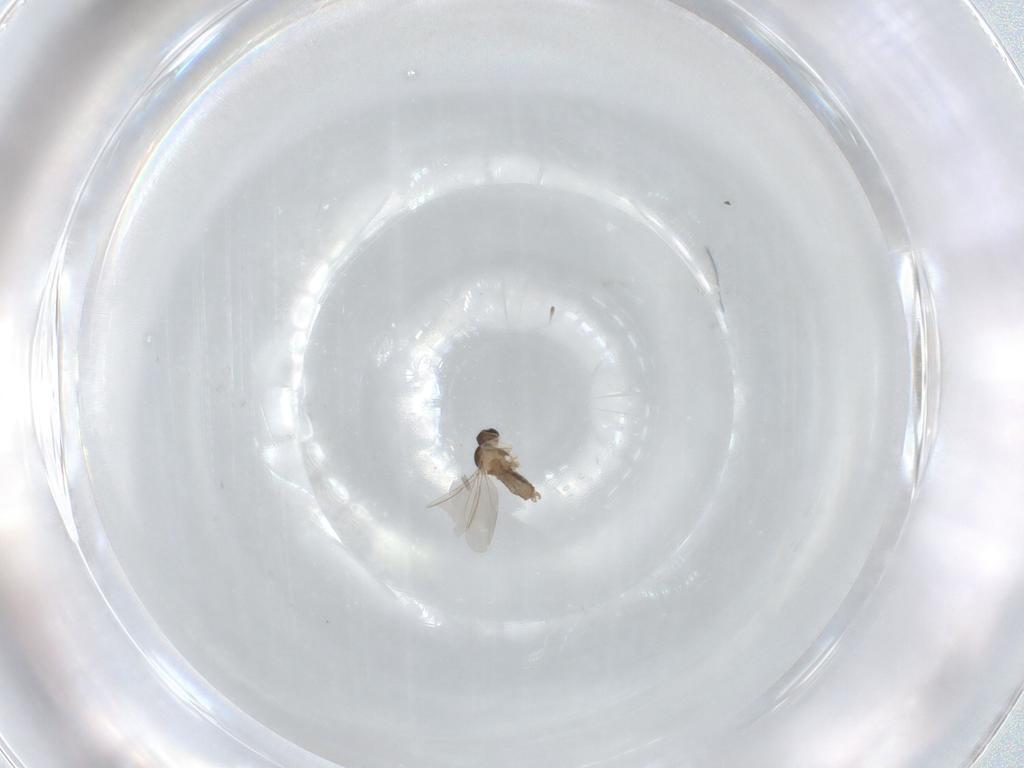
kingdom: Animalia
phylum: Arthropoda
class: Insecta
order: Diptera
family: Cecidomyiidae
